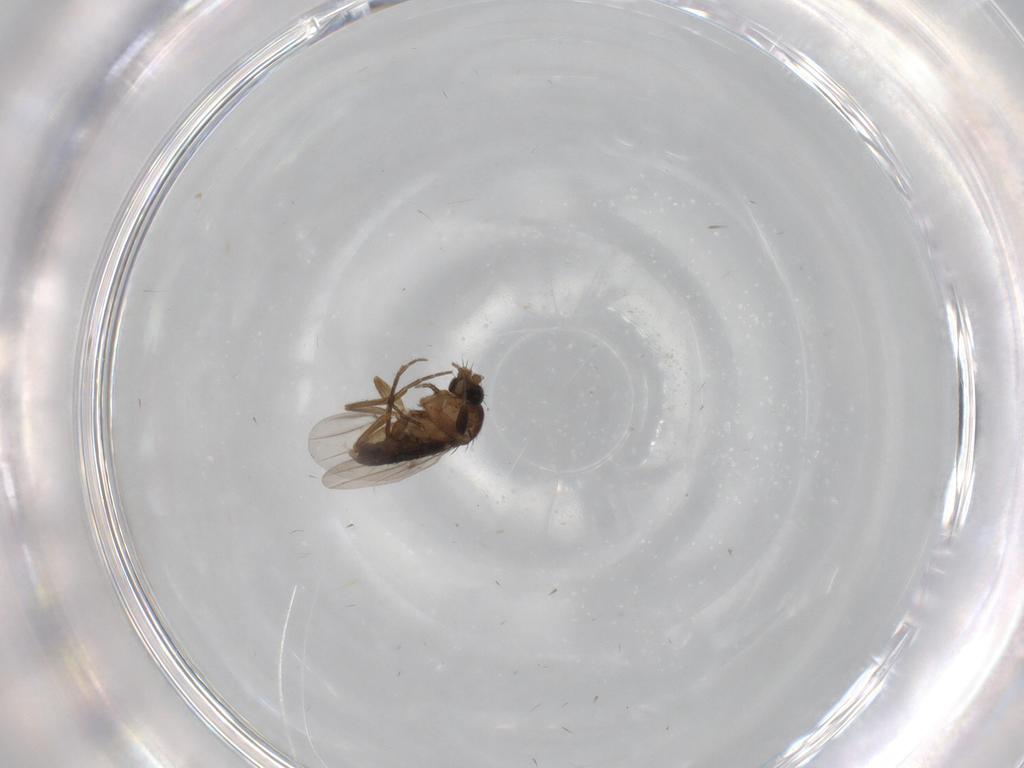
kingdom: Animalia
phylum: Arthropoda
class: Insecta
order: Diptera
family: Phoridae
